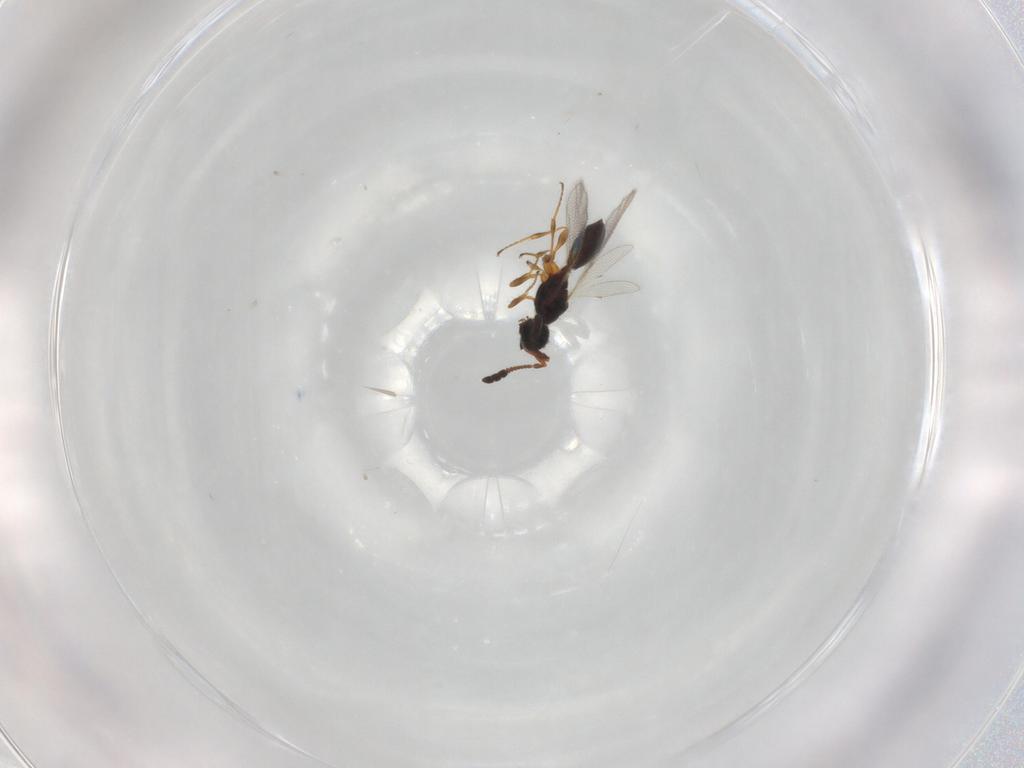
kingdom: Animalia
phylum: Arthropoda
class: Insecta
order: Hymenoptera
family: Diapriidae
